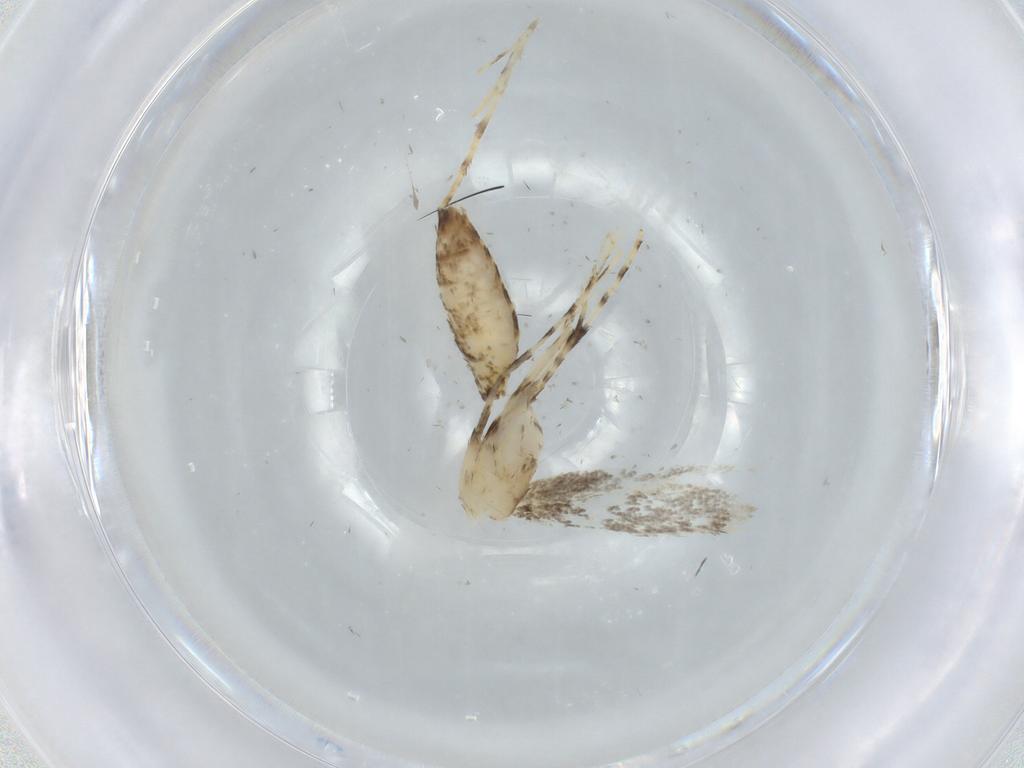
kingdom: Animalia
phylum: Arthropoda
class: Insecta
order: Lepidoptera
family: Gracillariidae
